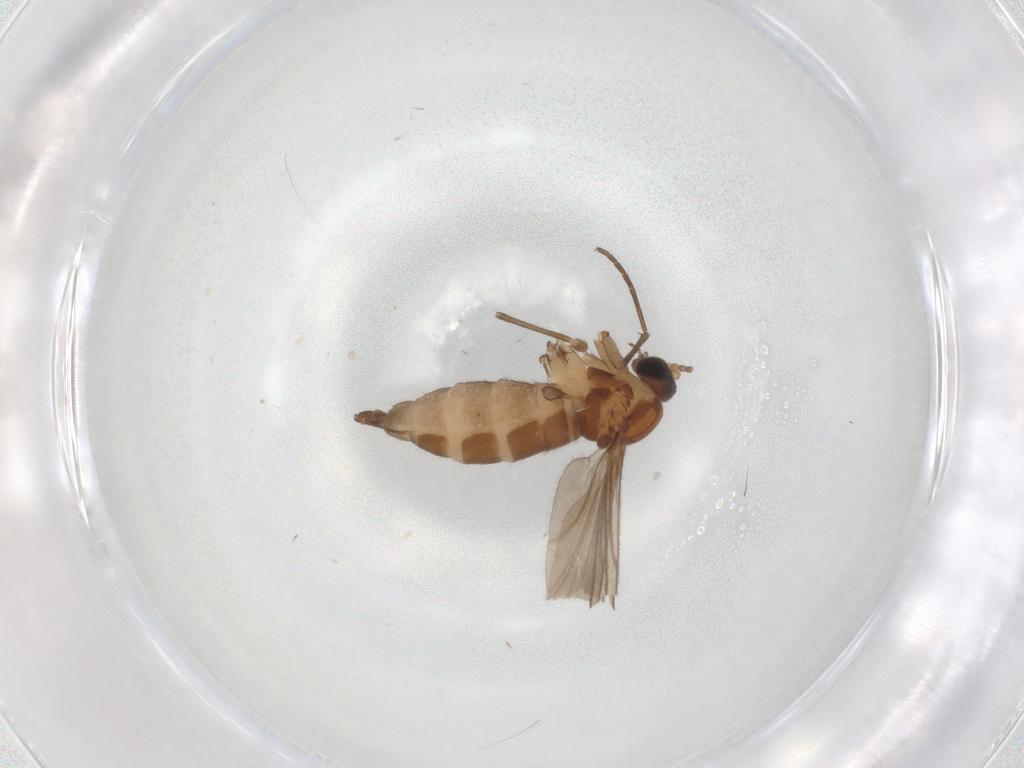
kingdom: Animalia
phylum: Arthropoda
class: Insecta
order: Diptera
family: Sciaridae
